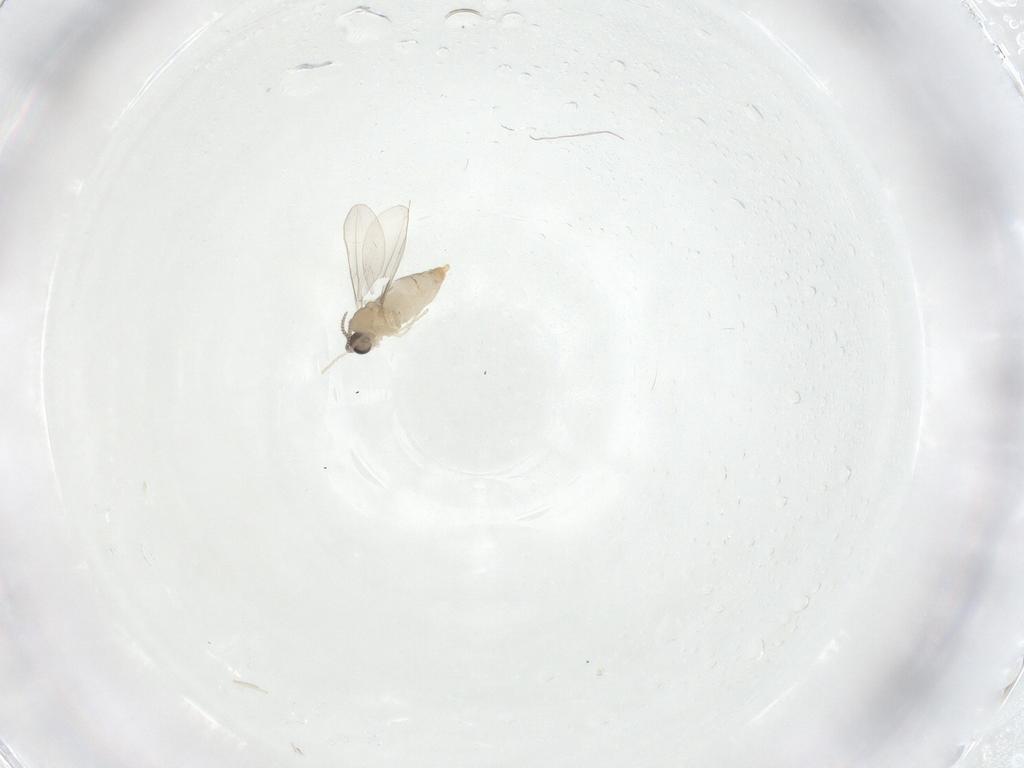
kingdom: Animalia
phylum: Arthropoda
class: Insecta
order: Diptera
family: Cecidomyiidae
